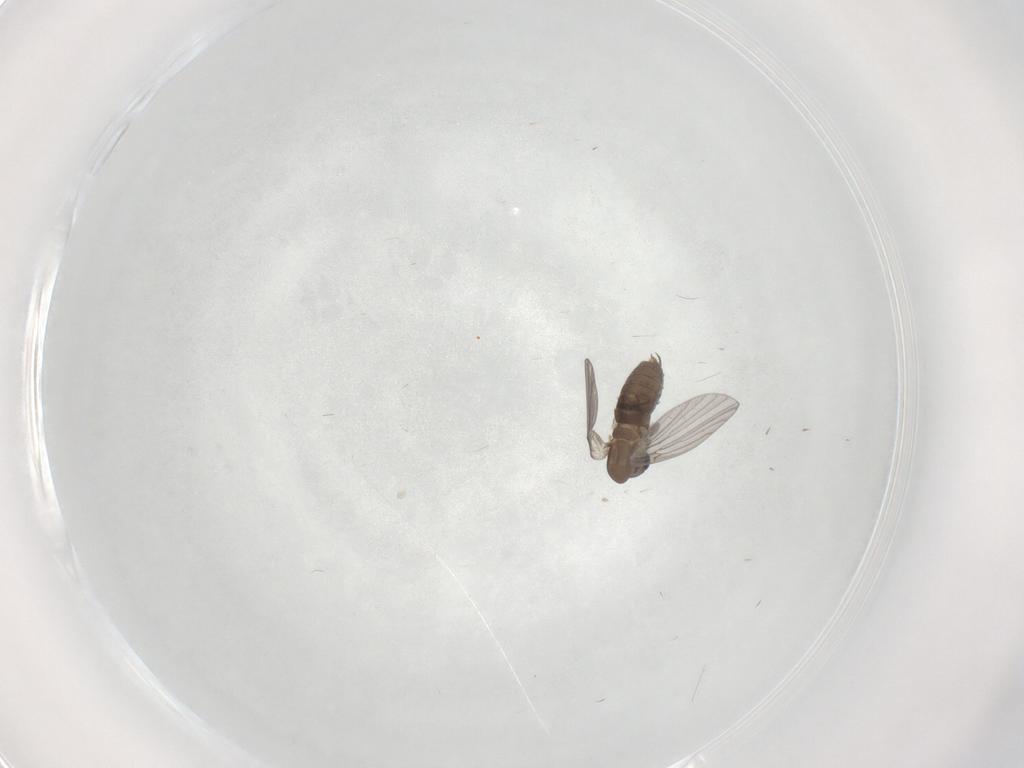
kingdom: Animalia
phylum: Arthropoda
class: Insecta
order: Diptera
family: Cecidomyiidae
